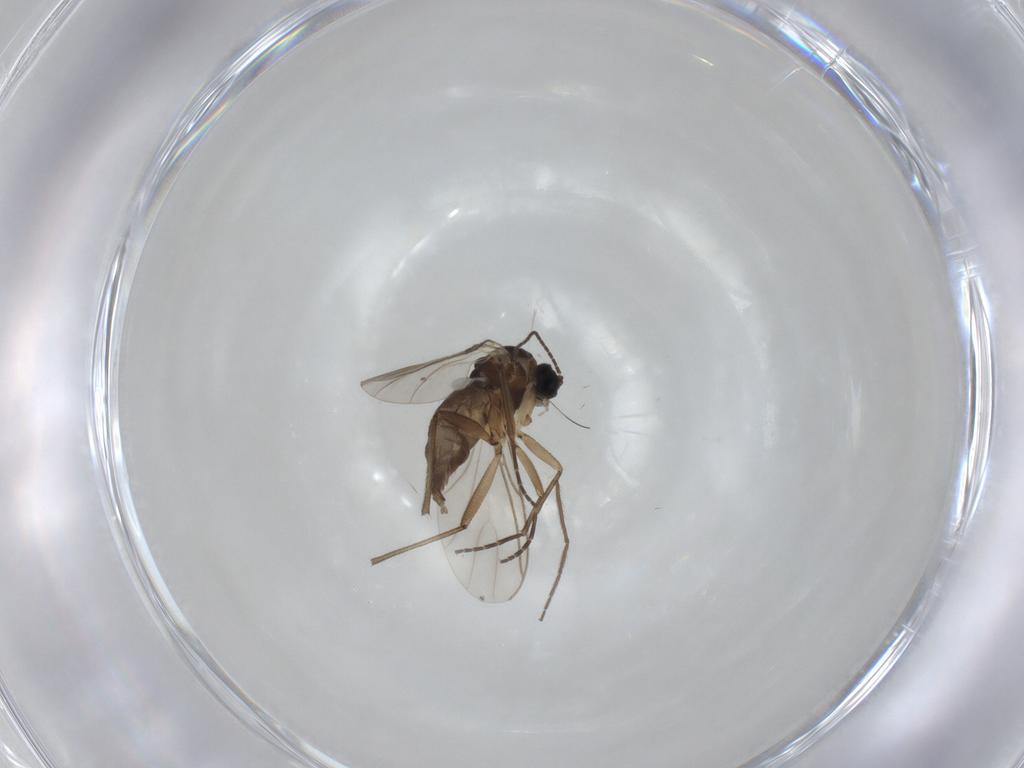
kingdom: Animalia
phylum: Arthropoda
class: Insecta
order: Diptera
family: Chironomidae
